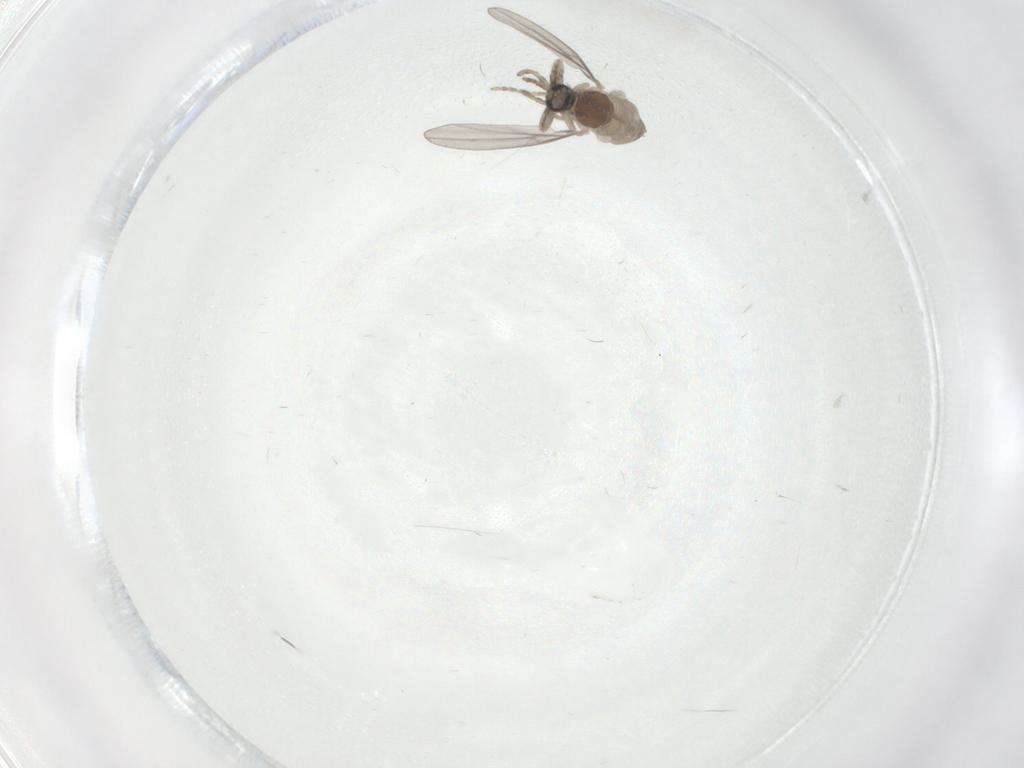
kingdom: Animalia
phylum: Arthropoda
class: Insecta
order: Diptera
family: Cecidomyiidae
